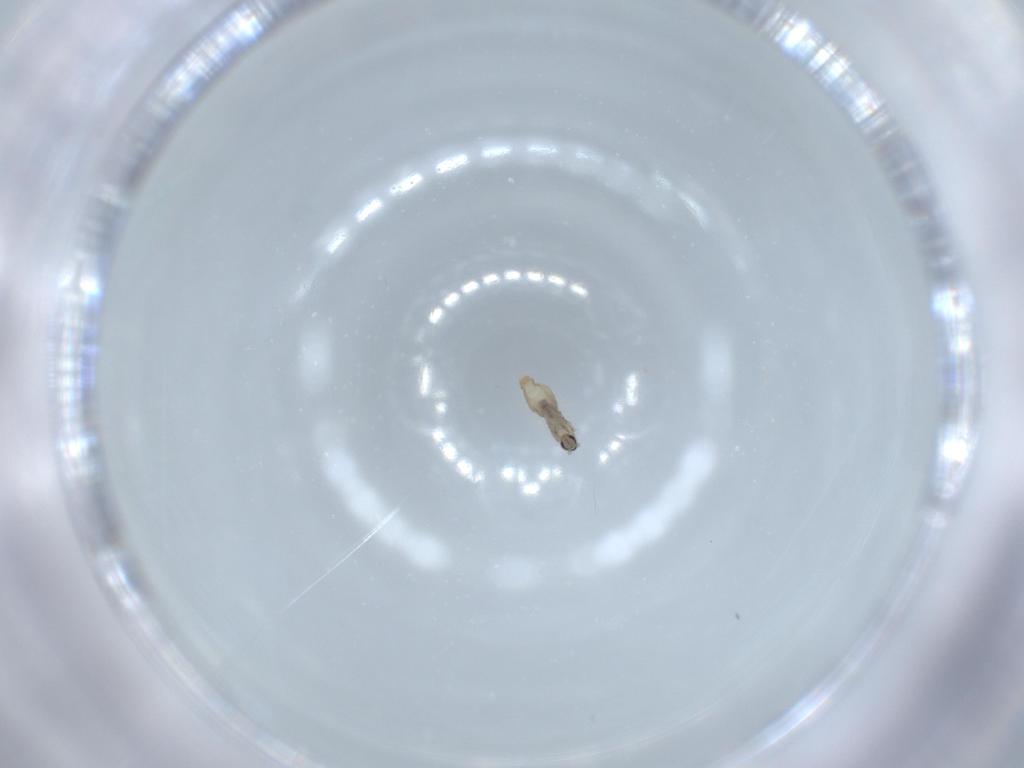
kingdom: Animalia
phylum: Arthropoda
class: Insecta
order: Diptera
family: Cecidomyiidae
